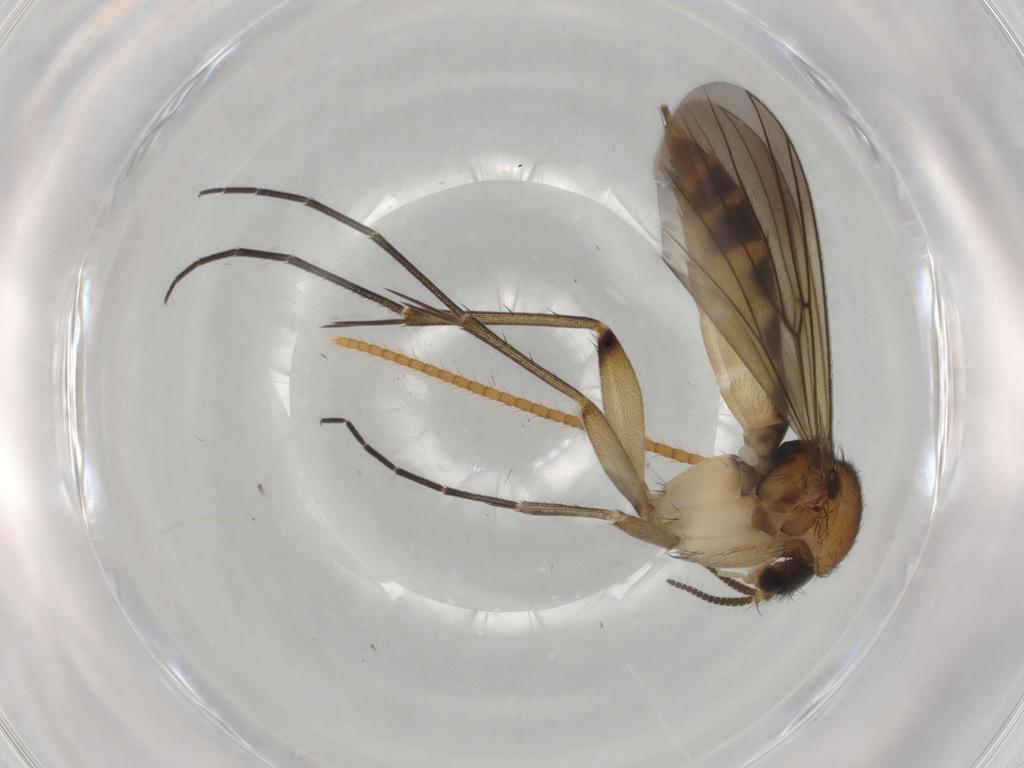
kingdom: Animalia
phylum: Arthropoda
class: Insecta
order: Diptera
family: Mycetophilidae
